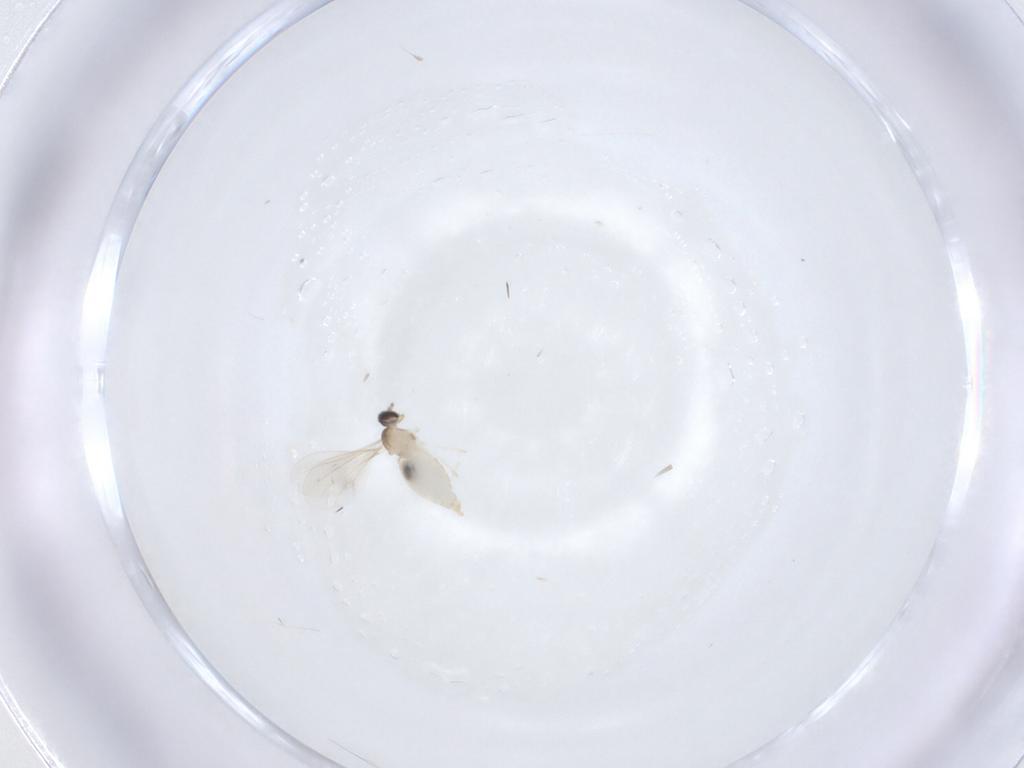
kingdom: Animalia
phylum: Arthropoda
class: Insecta
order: Diptera
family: Cecidomyiidae
